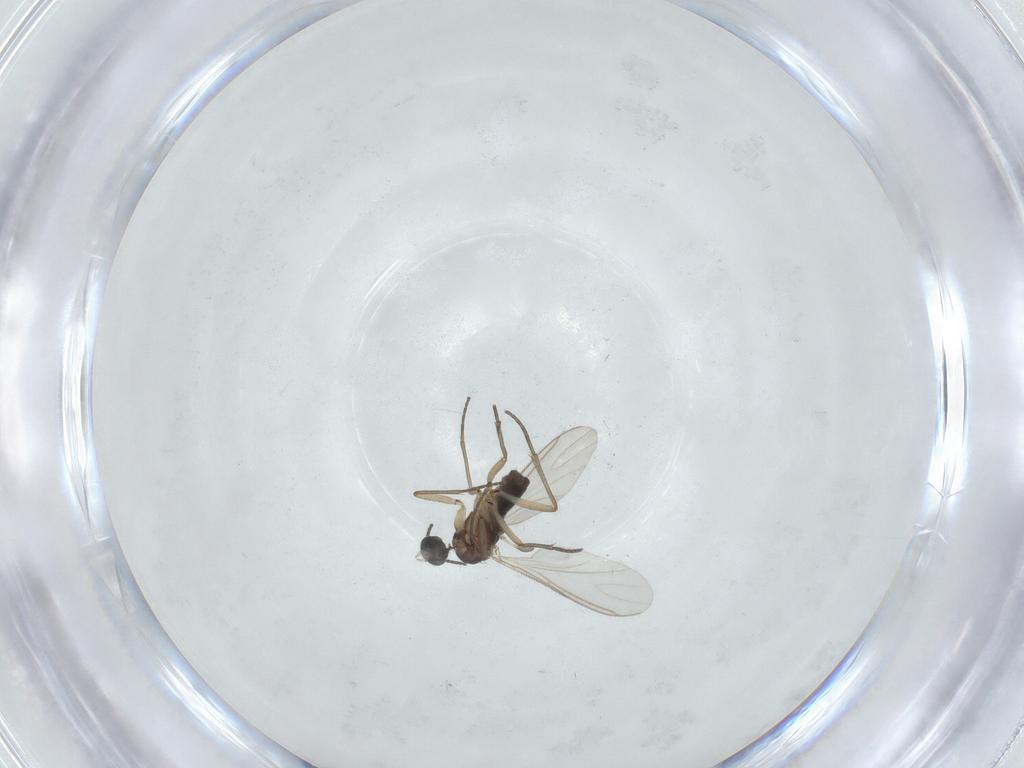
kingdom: Animalia
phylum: Arthropoda
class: Insecta
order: Diptera
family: Sciaridae
